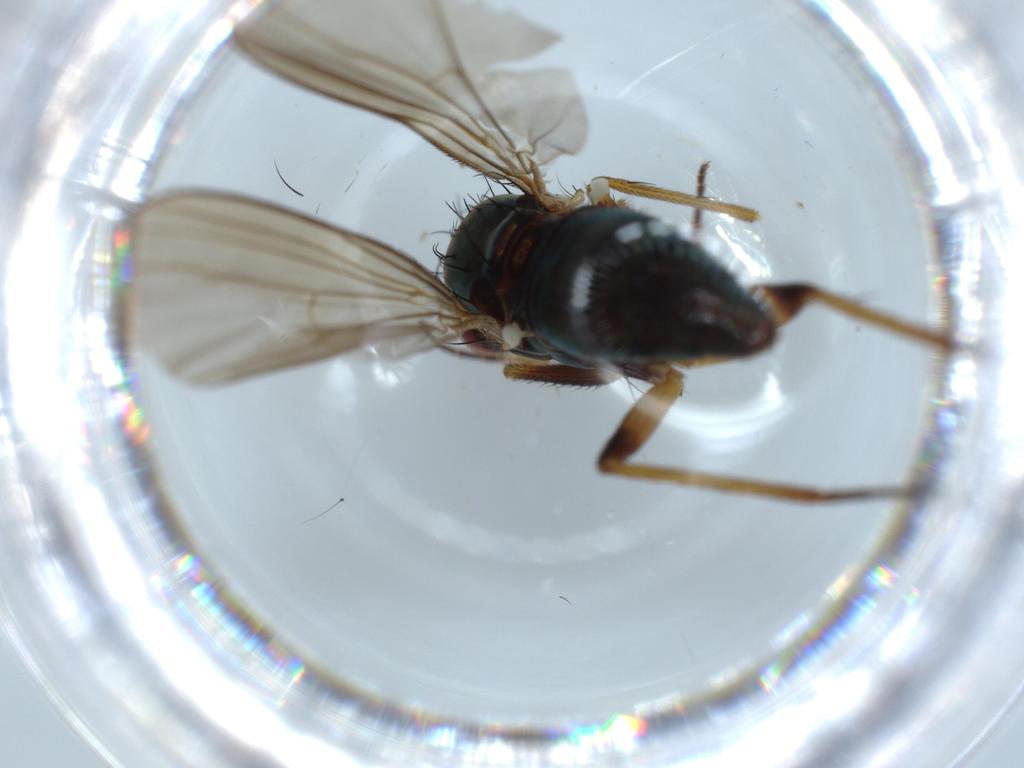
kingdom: Animalia
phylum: Arthropoda
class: Insecta
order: Diptera
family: Dolichopodidae
